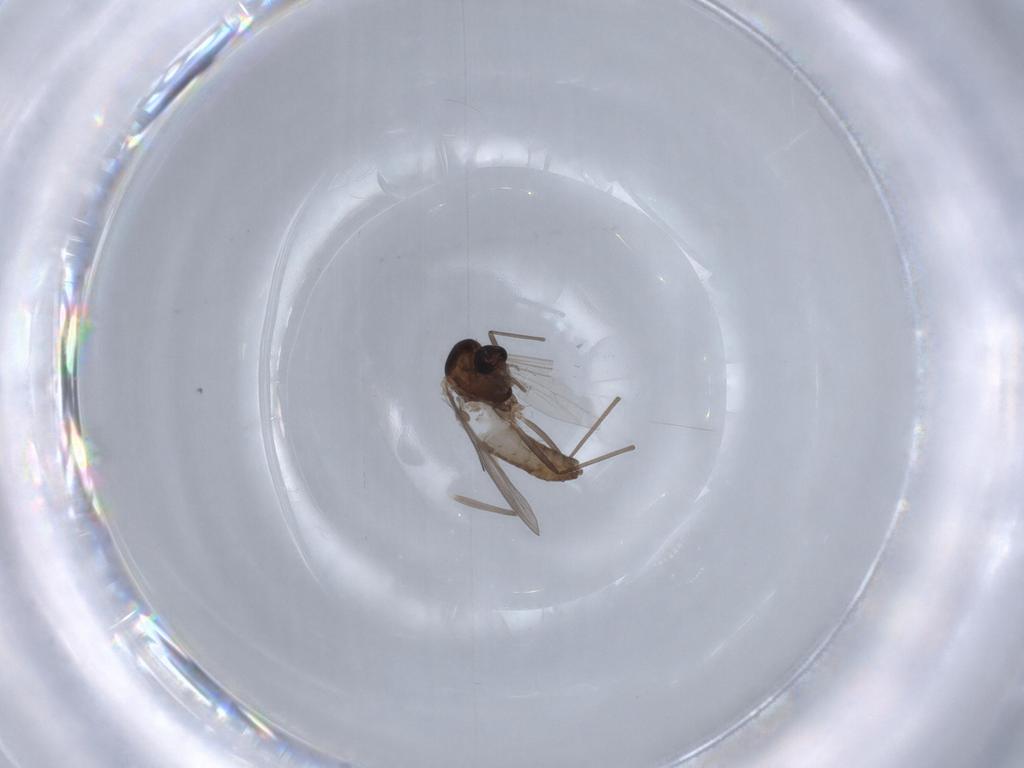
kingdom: Animalia
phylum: Arthropoda
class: Insecta
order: Diptera
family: Chironomidae
